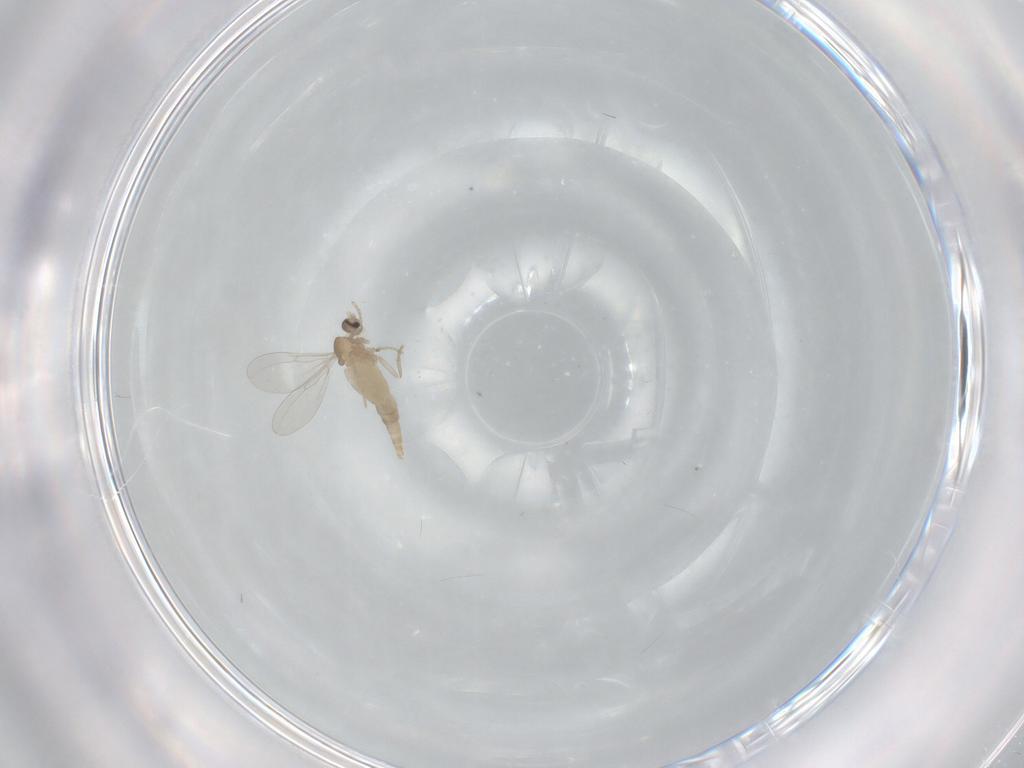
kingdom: Animalia
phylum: Arthropoda
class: Insecta
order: Diptera
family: Cecidomyiidae
